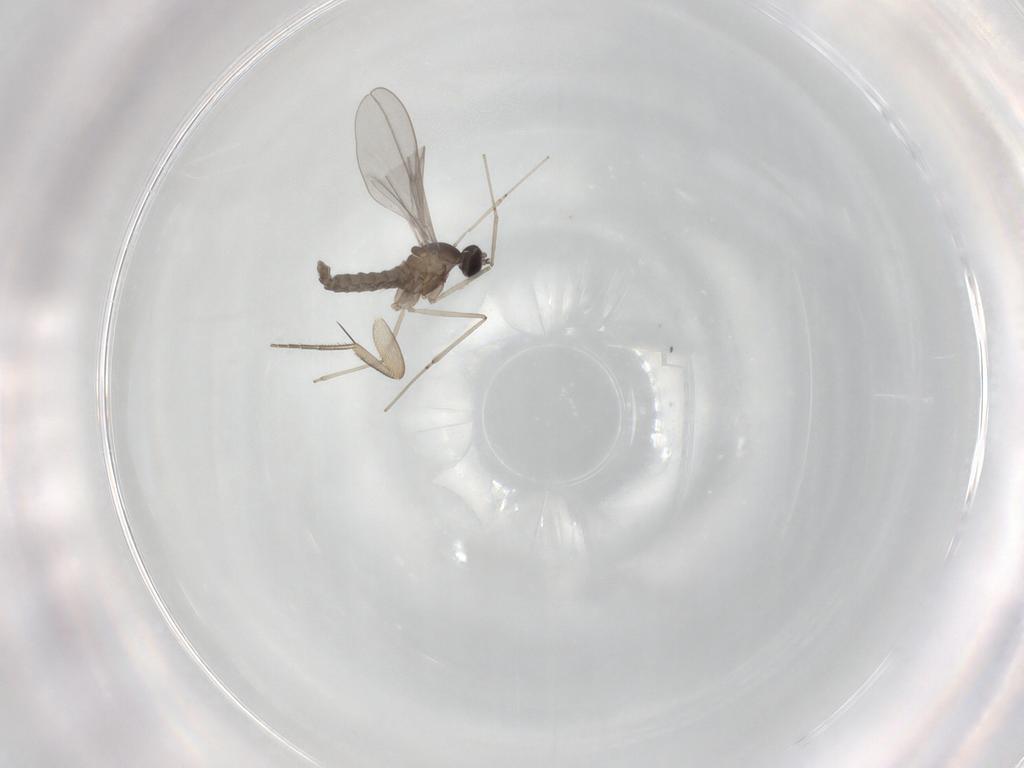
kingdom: Animalia
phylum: Arthropoda
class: Insecta
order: Diptera
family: Cecidomyiidae
